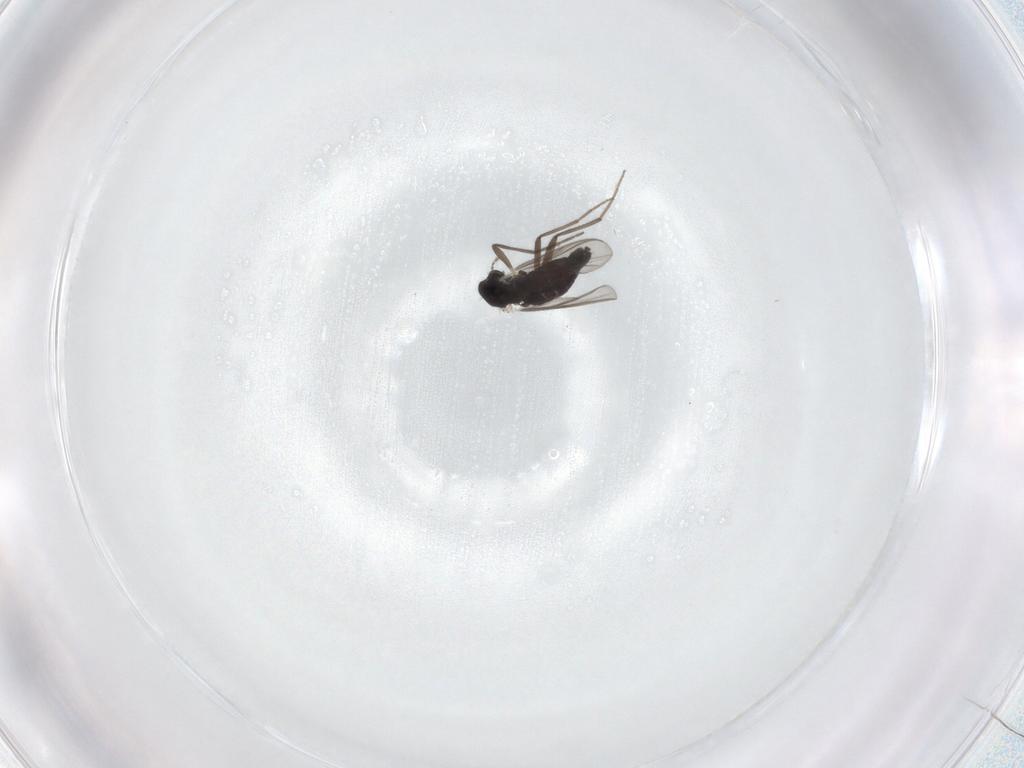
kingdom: Animalia
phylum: Arthropoda
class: Insecta
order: Diptera
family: Chironomidae
